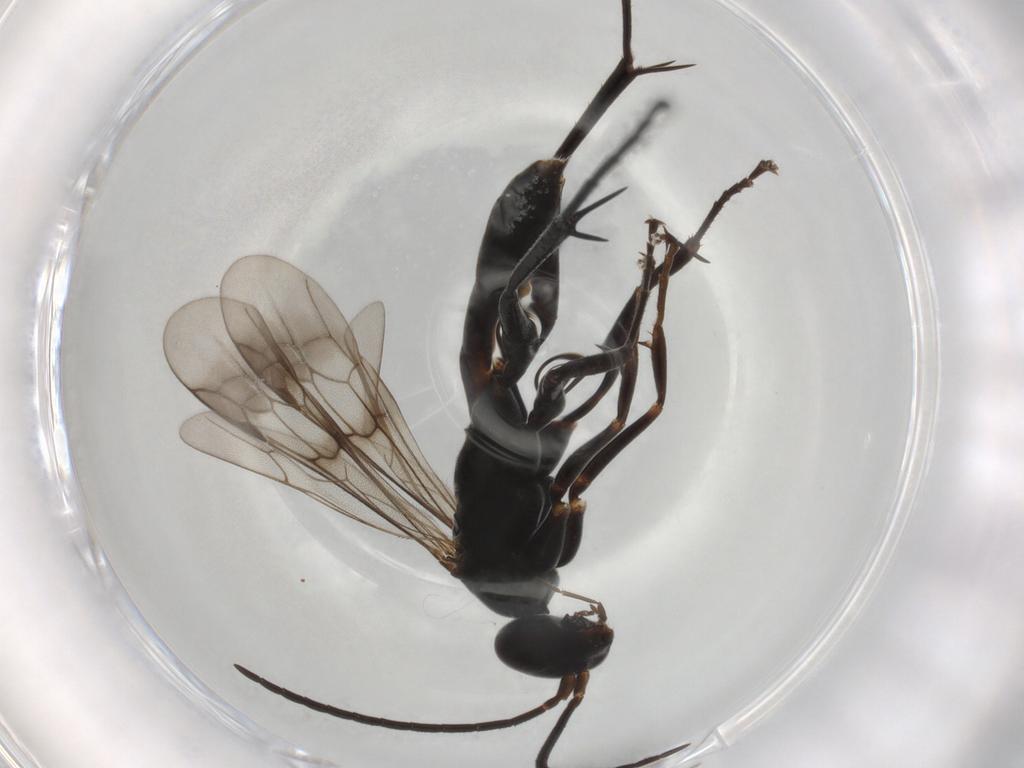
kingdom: Animalia
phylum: Arthropoda
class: Insecta
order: Hymenoptera
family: Pompilidae
